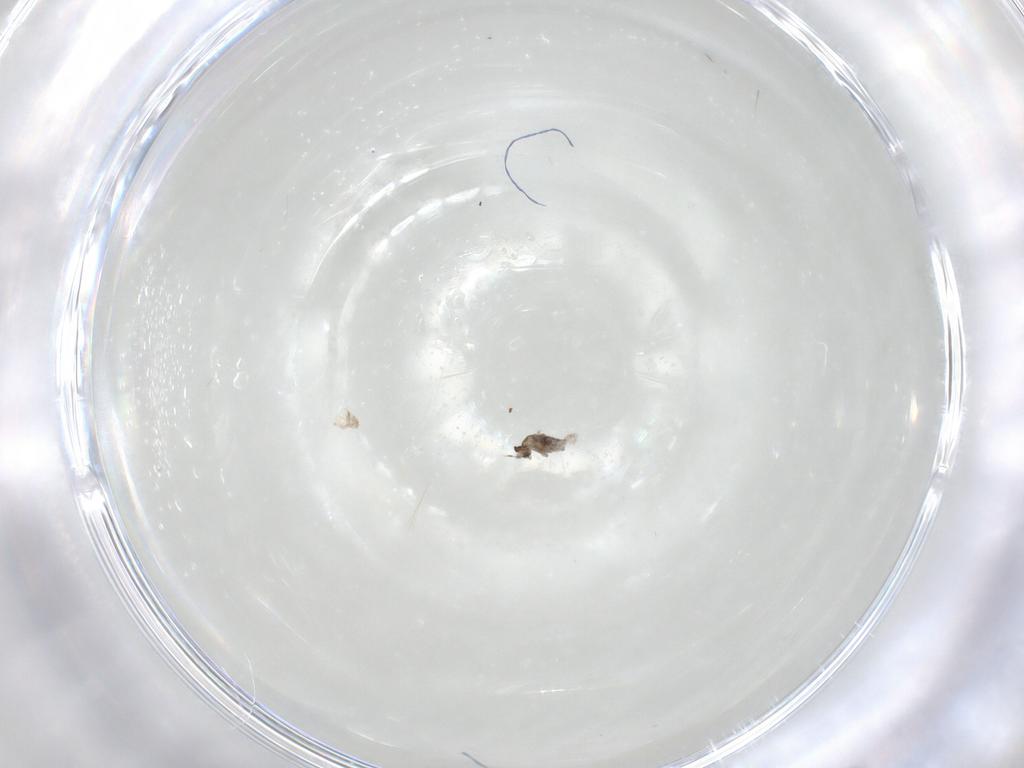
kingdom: Animalia
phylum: Arthropoda
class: Insecta
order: Diptera
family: Cecidomyiidae
